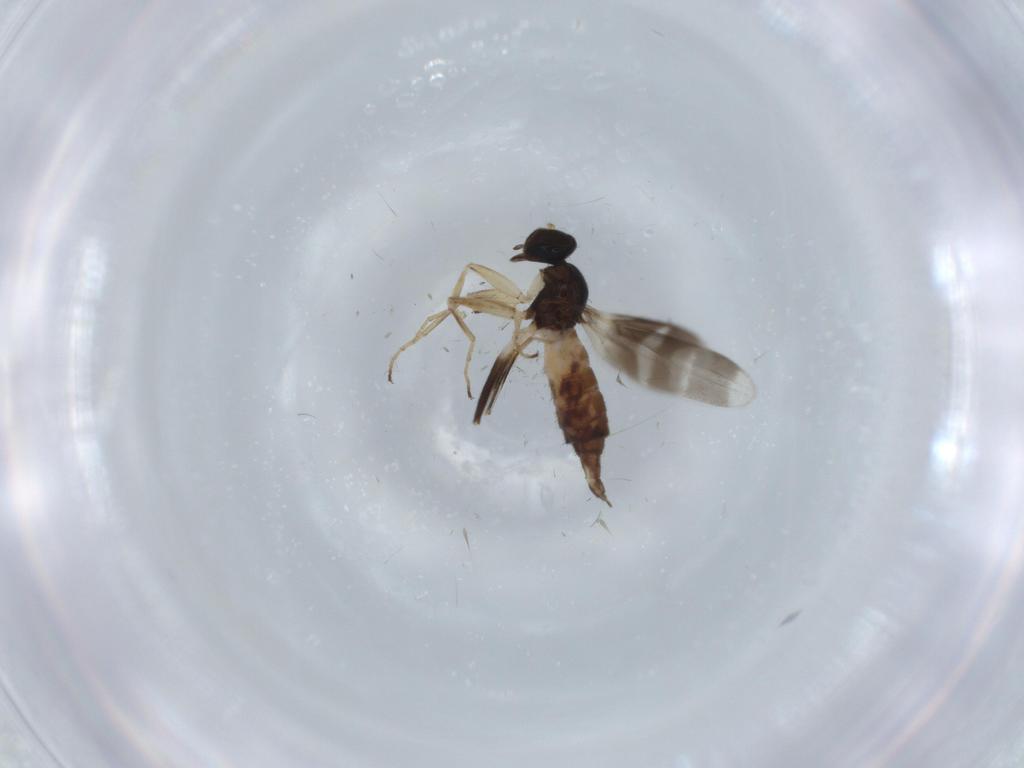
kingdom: Animalia
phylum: Arthropoda
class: Insecta
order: Diptera
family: Hybotidae
